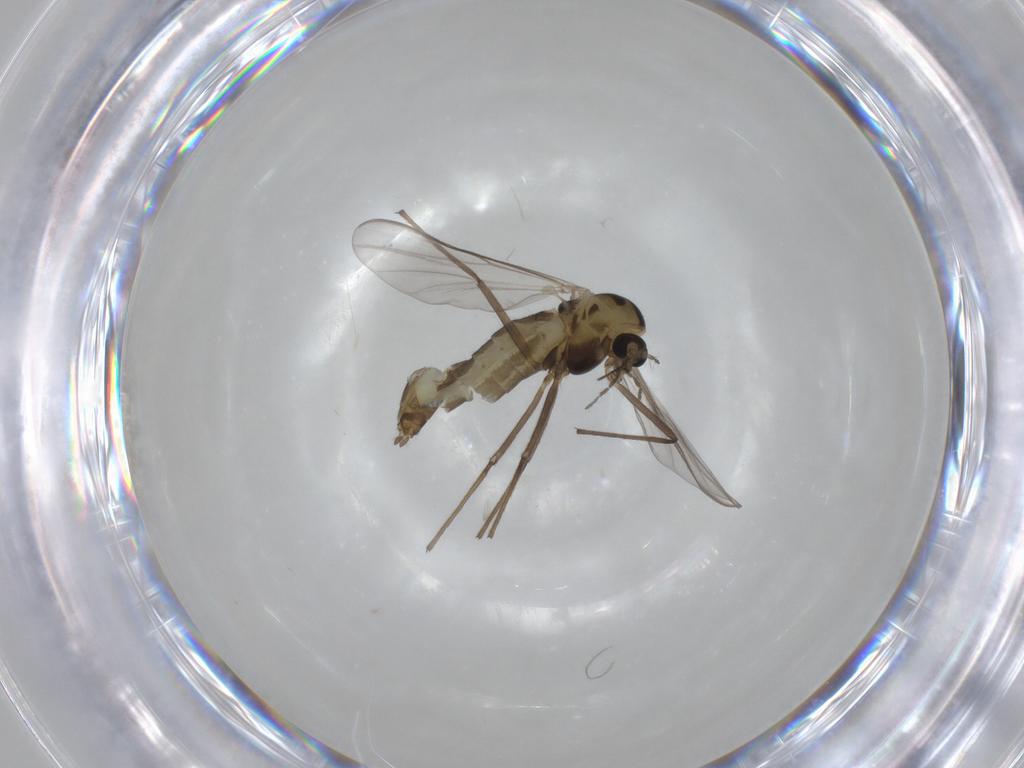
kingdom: Animalia
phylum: Arthropoda
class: Insecta
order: Diptera
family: Chironomidae
